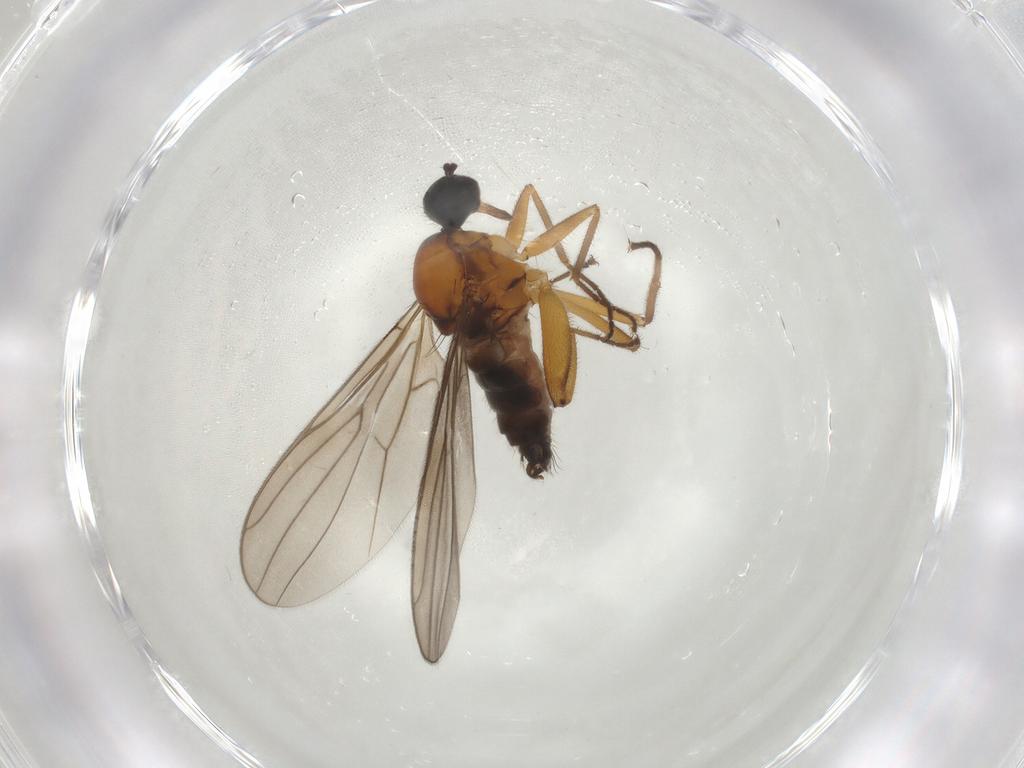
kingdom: Animalia
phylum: Arthropoda
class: Insecta
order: Diptera
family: Hybotidae
